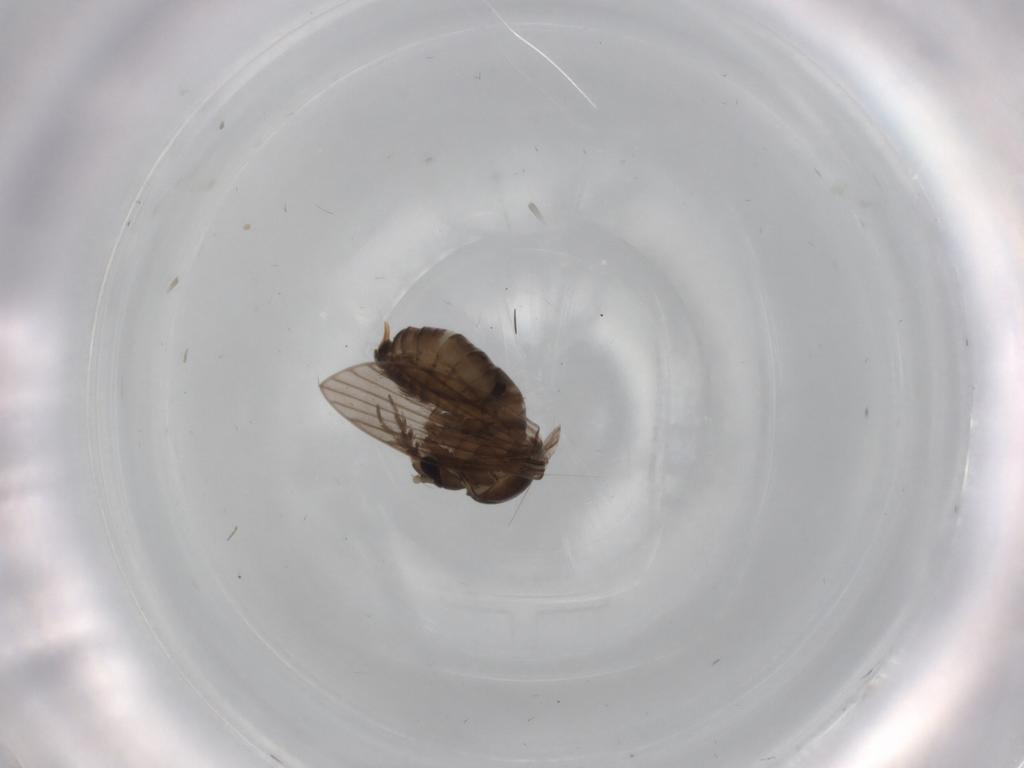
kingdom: Animalia
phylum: Arthropoda
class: Insecta
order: Diptera
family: Psychodidae
